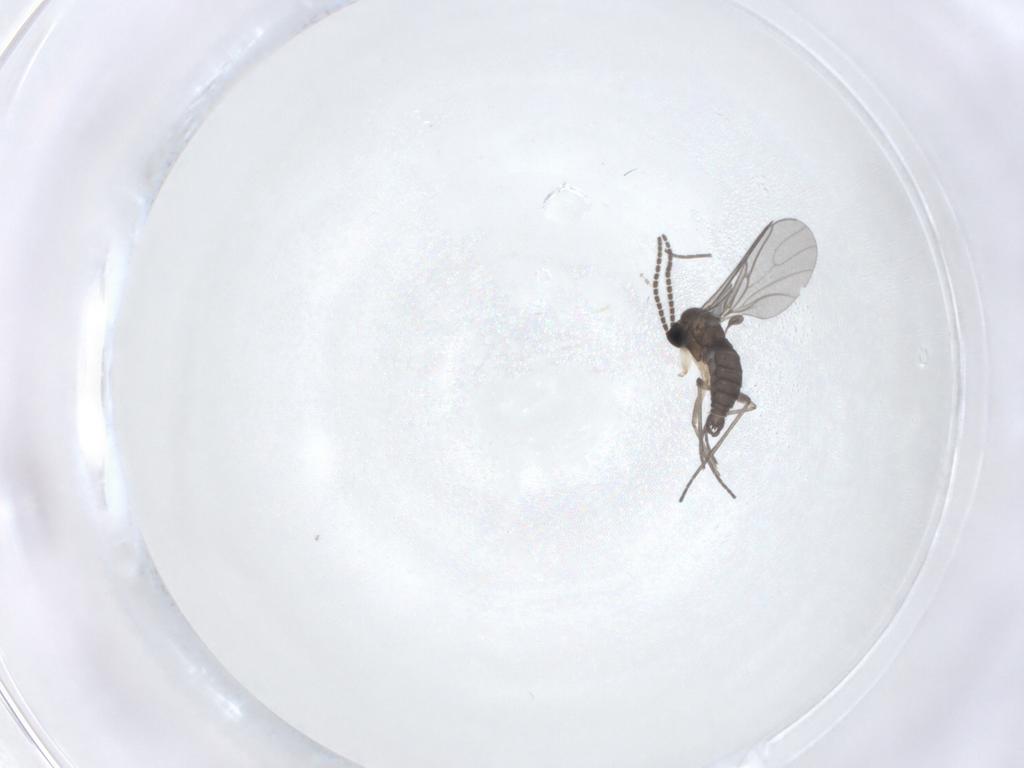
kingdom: Animalia
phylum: Arthropoda
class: Insecta
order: Diptera
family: Sciaridae
